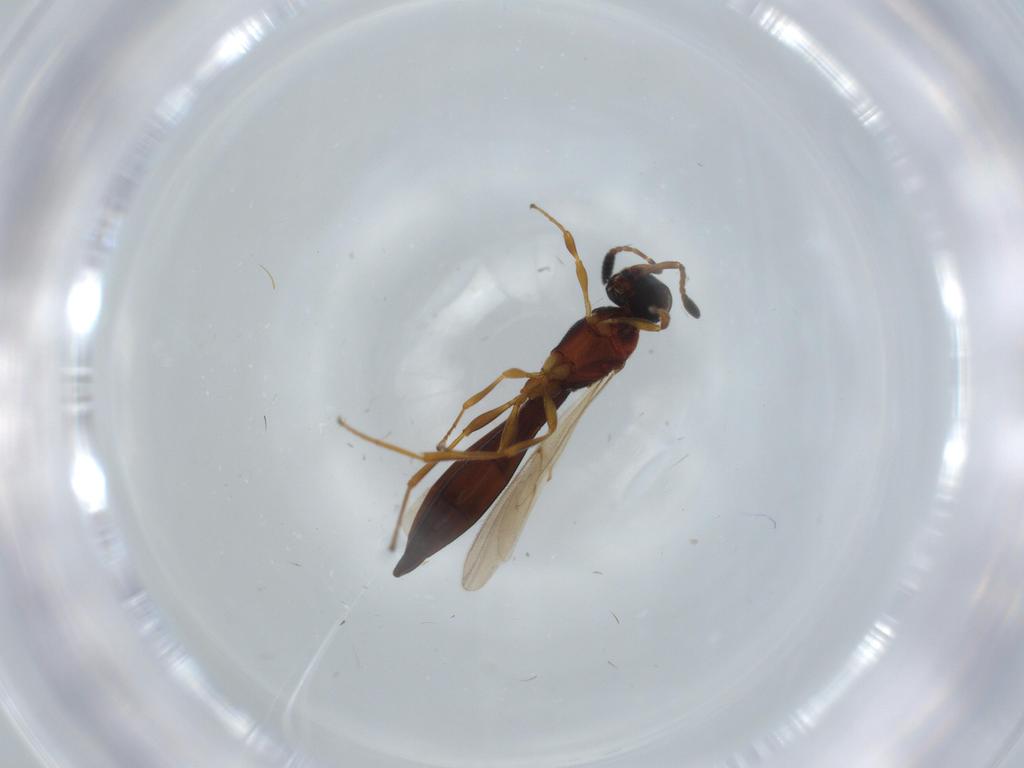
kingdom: Animalia
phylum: Arthropoda
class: Insecta
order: Hymenoptera
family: Scelionidae
